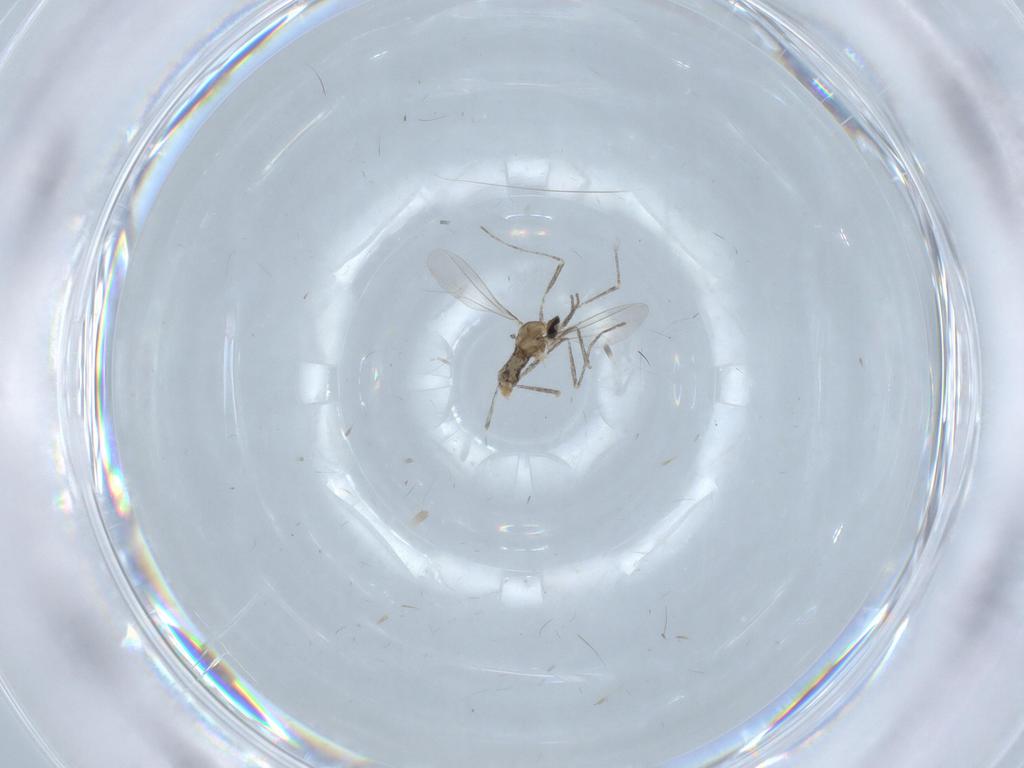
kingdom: Animalia
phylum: Arthropoda
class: Insecta
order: Diptera
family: Cecidomyiidae
